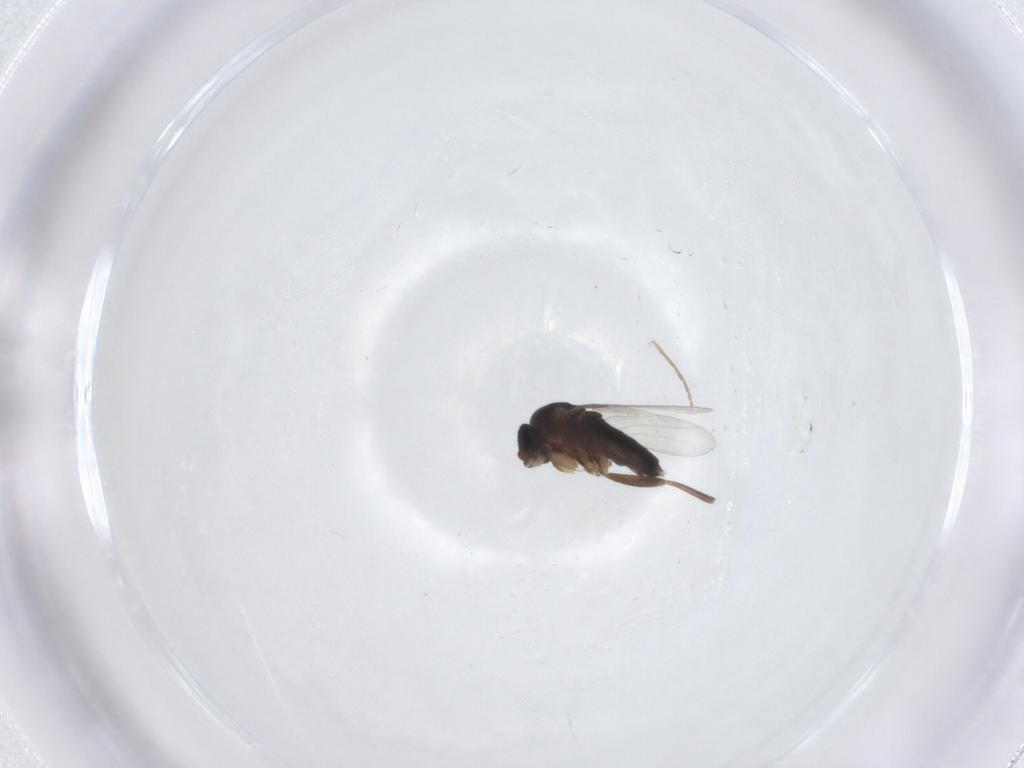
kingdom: Animalia
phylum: Arthropoda
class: Insecta
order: Diptera
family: Phoridae
